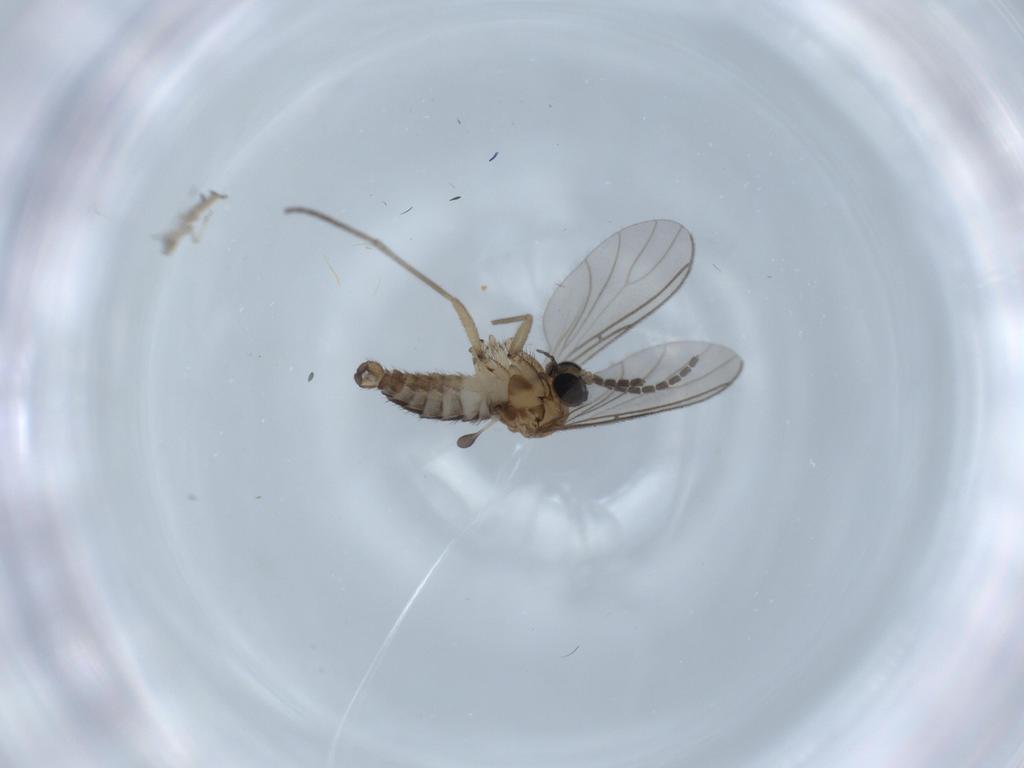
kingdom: Animalia
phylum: Arthropoda
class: Insecta
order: Diptera
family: Sciaridae
